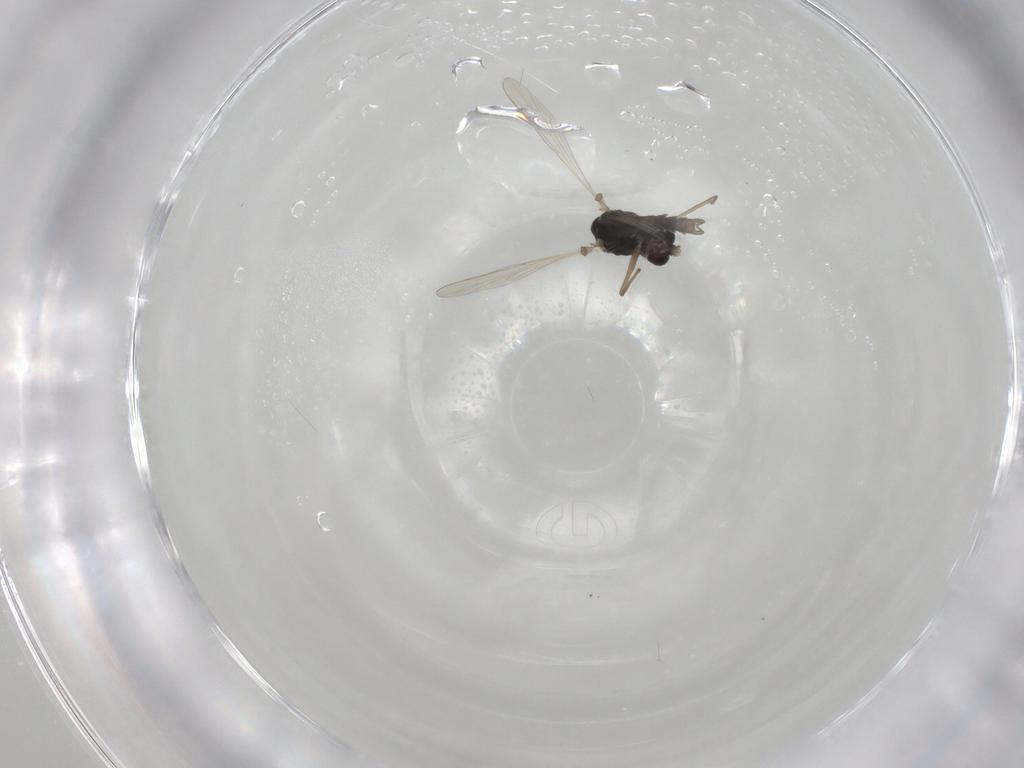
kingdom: Animalia
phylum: Arthropoda
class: Insecta
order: Diptera
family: Chironomidae
